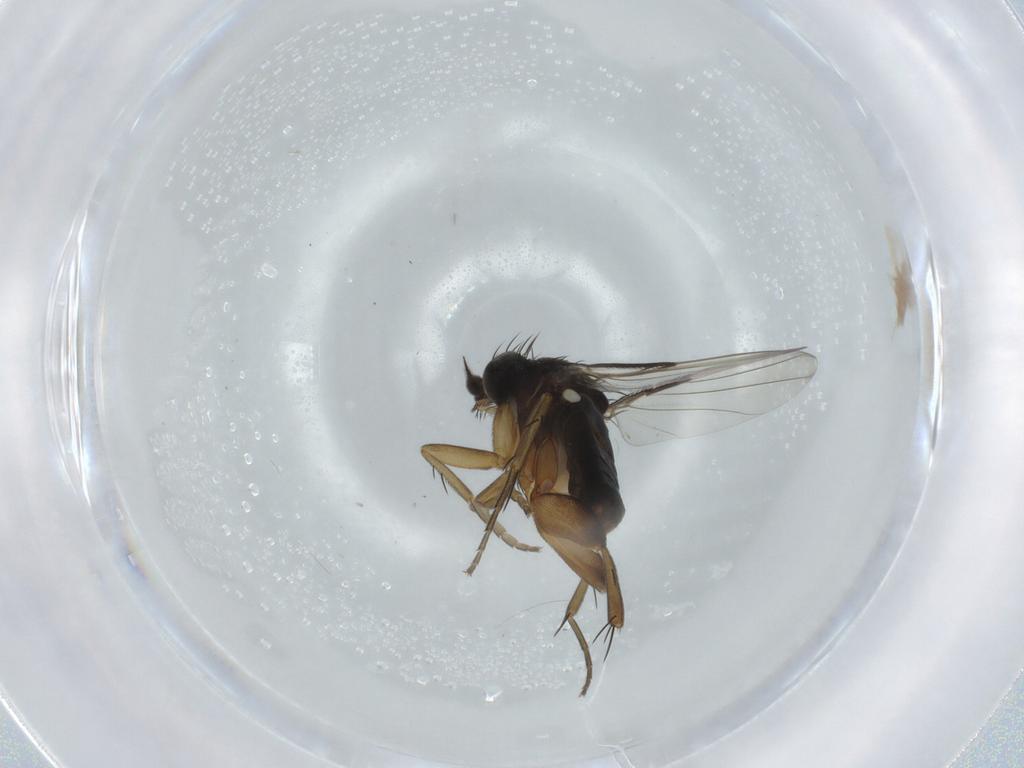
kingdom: Animalia
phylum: Arthropoda
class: Insecta
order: Diptera
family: Phoridae
